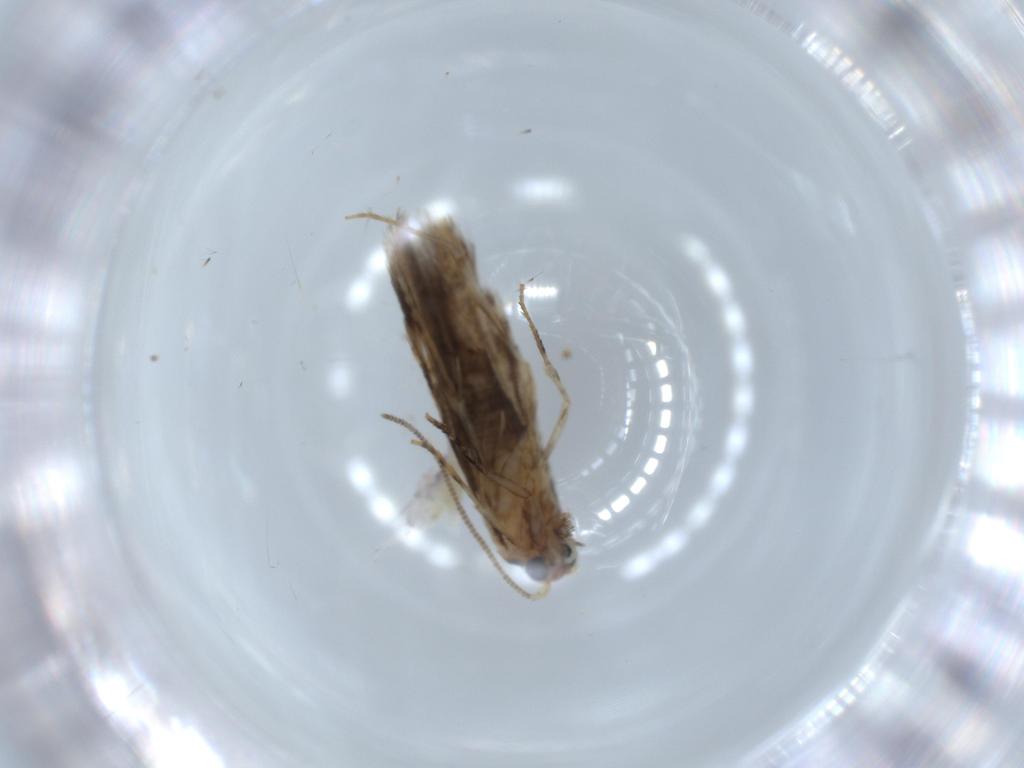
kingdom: Animalia
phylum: Arthropoda
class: Insecta
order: Lepidoptera
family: Tineidae
